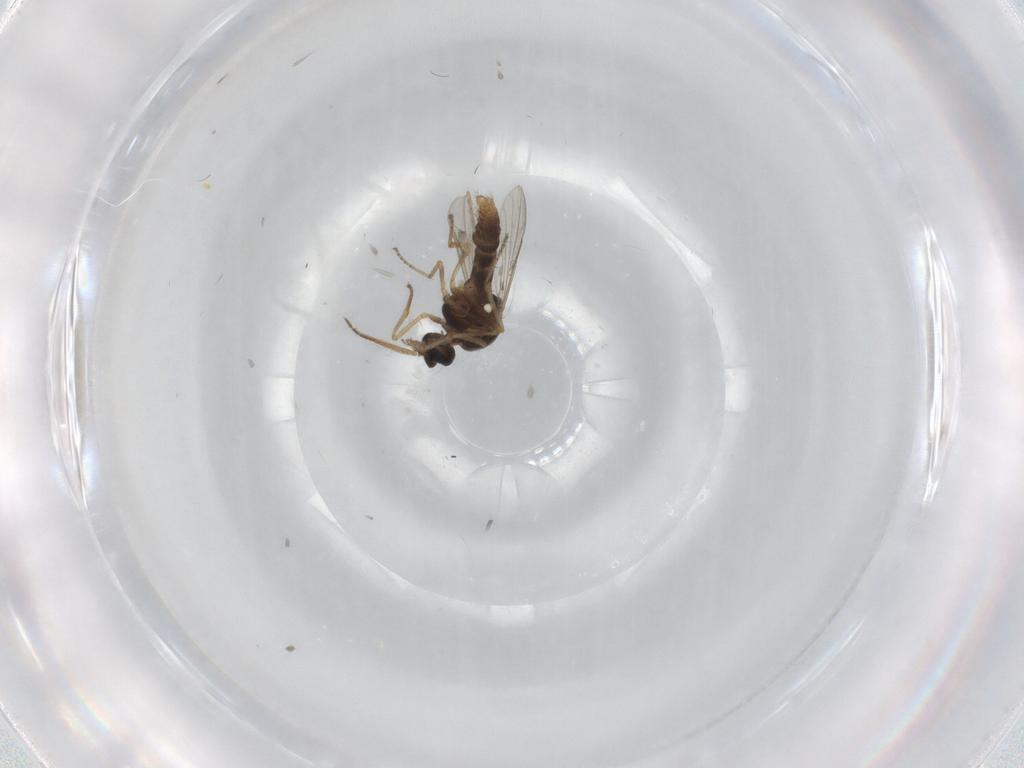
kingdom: Animalia
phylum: Arthropoda
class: Insecta
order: Diptera
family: Ceratopogonidae
